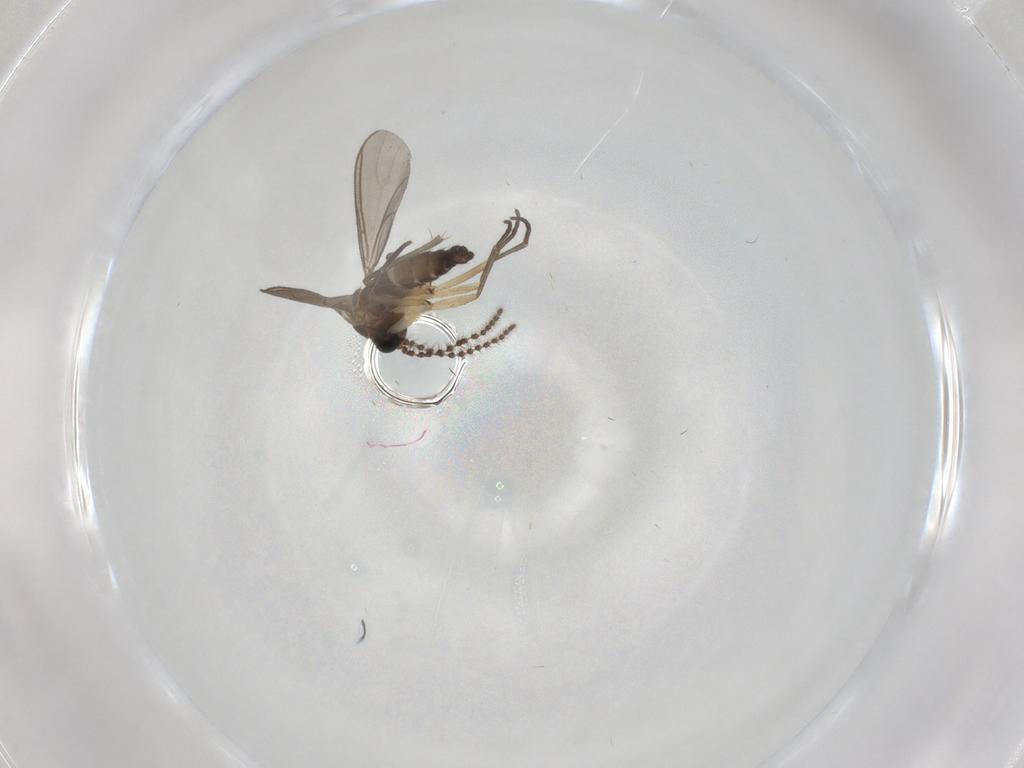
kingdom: Animalia
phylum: Arthropoda
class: Insecta
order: Diptera
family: Sciaridae
